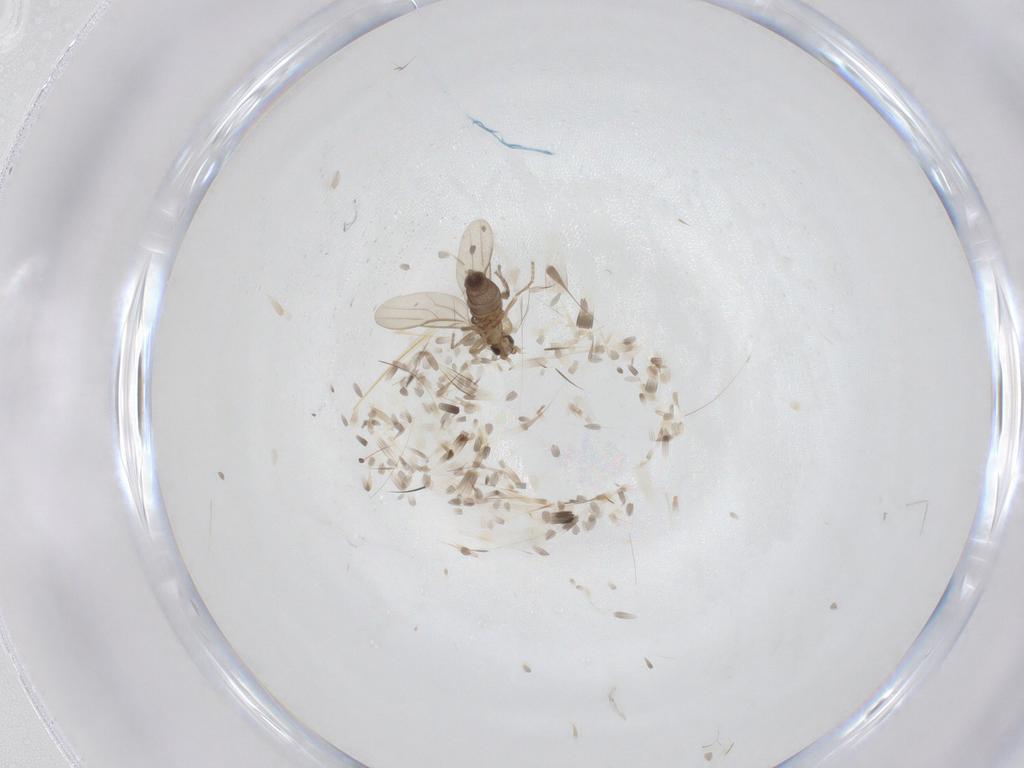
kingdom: Animalia
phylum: Arthropoda
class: Insecta
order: Diptera
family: Phoridae
